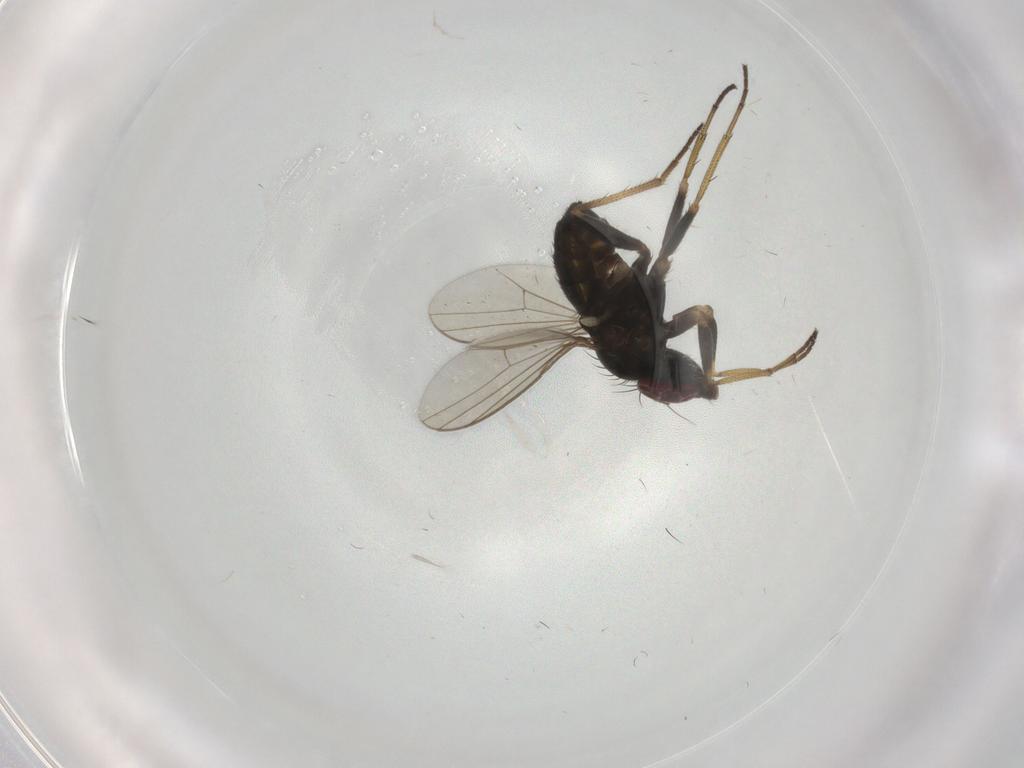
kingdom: Animalia
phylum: Arthropoda
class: Insecta
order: Diptera
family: Dolichopodidae
